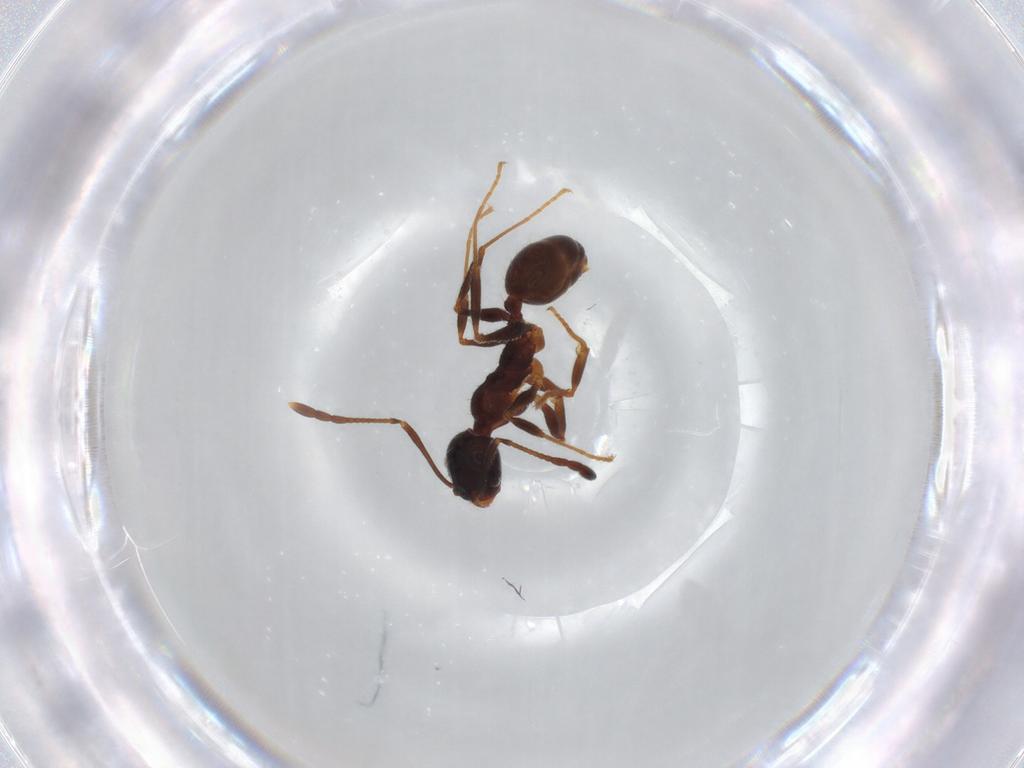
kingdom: Animalia
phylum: Arthropoda
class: Insecta
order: Hymenoptera
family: Formicidae
